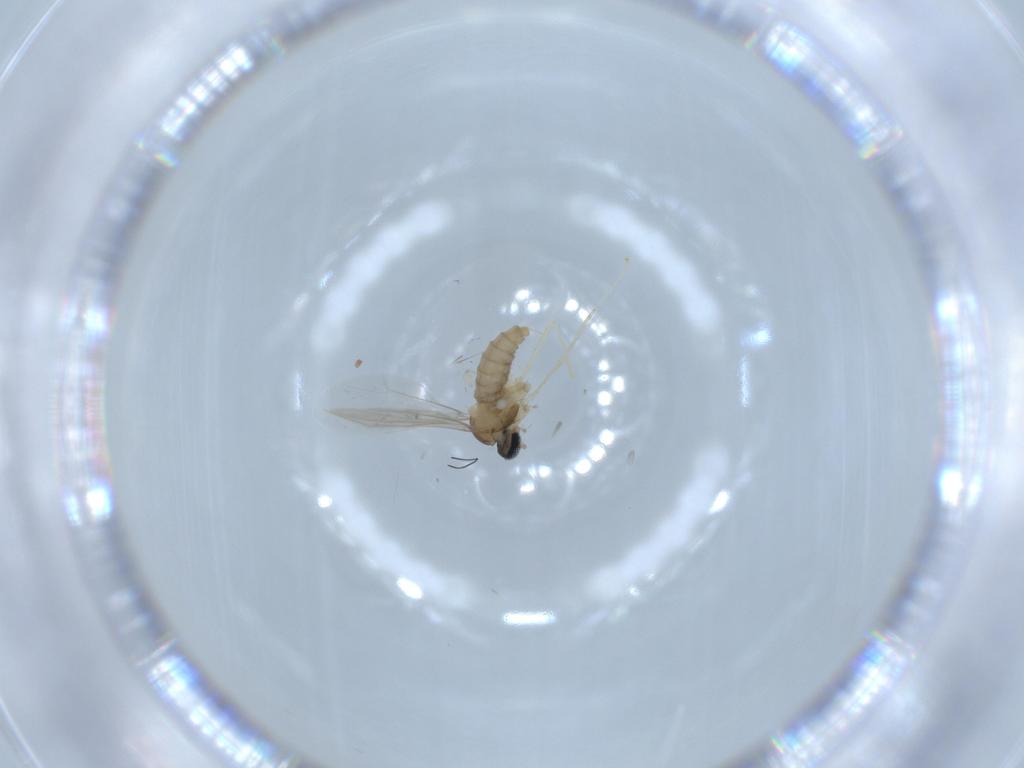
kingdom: Animalia
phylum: Arthropoda
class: Insecta
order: Diptera
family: Cecidomyiidae
